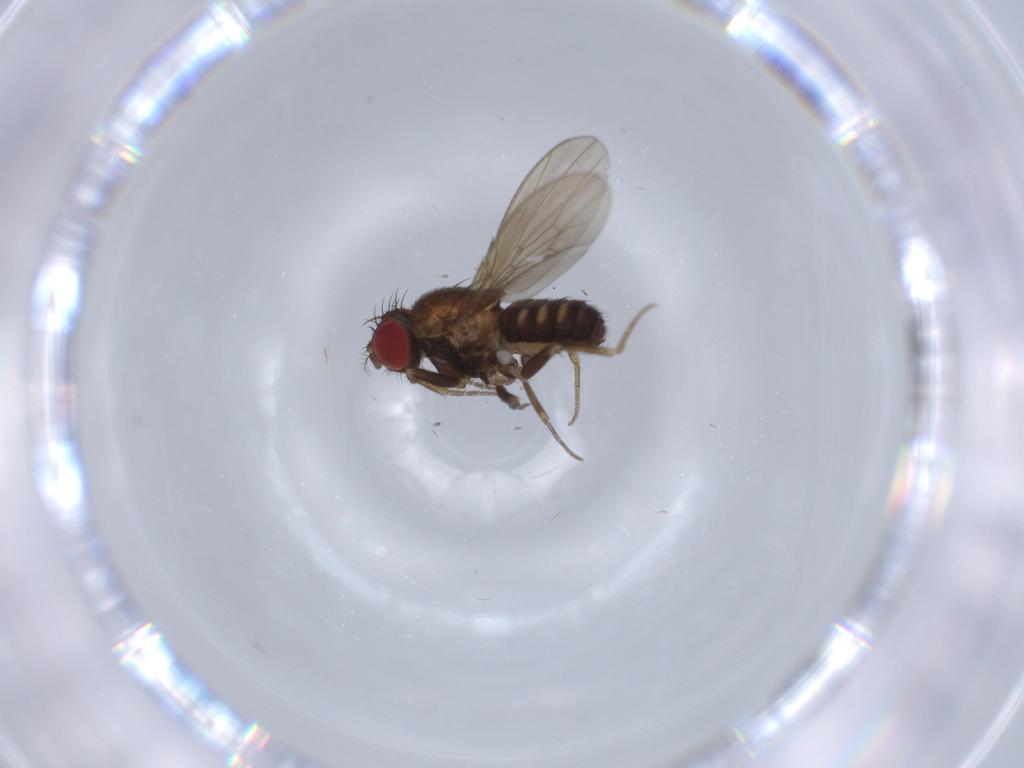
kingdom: Animalia
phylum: Arthropoda
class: Insecta
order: Diptera
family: Drosophilidae
